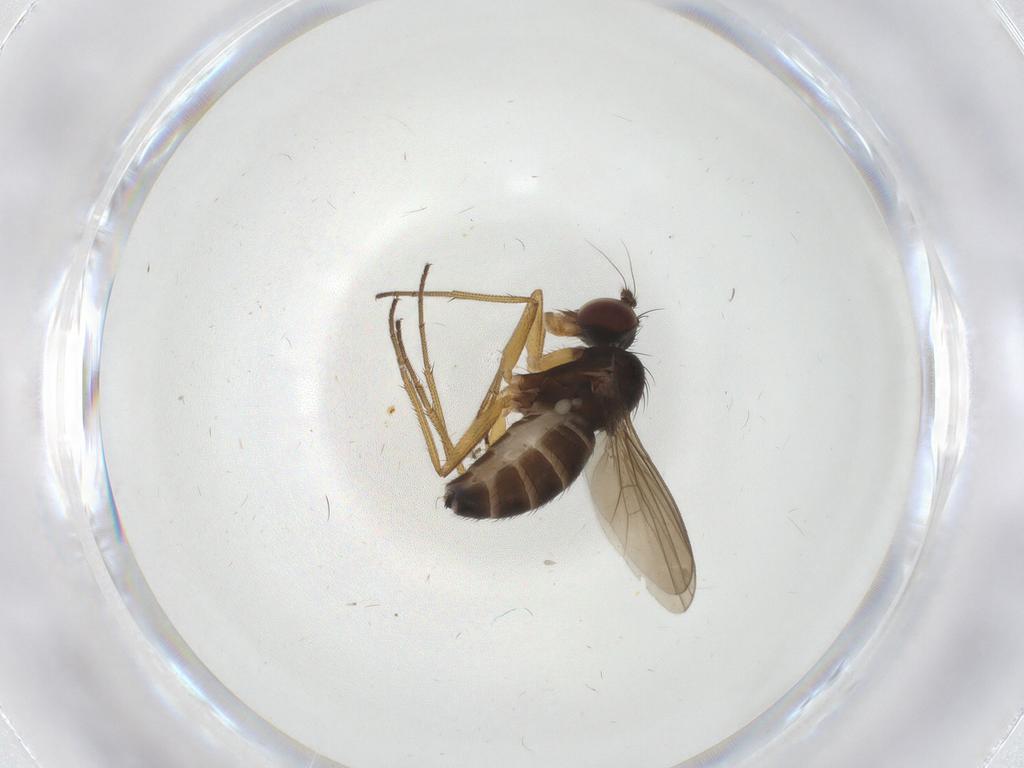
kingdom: Animalia
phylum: Arthropoda
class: Insecta
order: Diptera
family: Dolichopodidae
